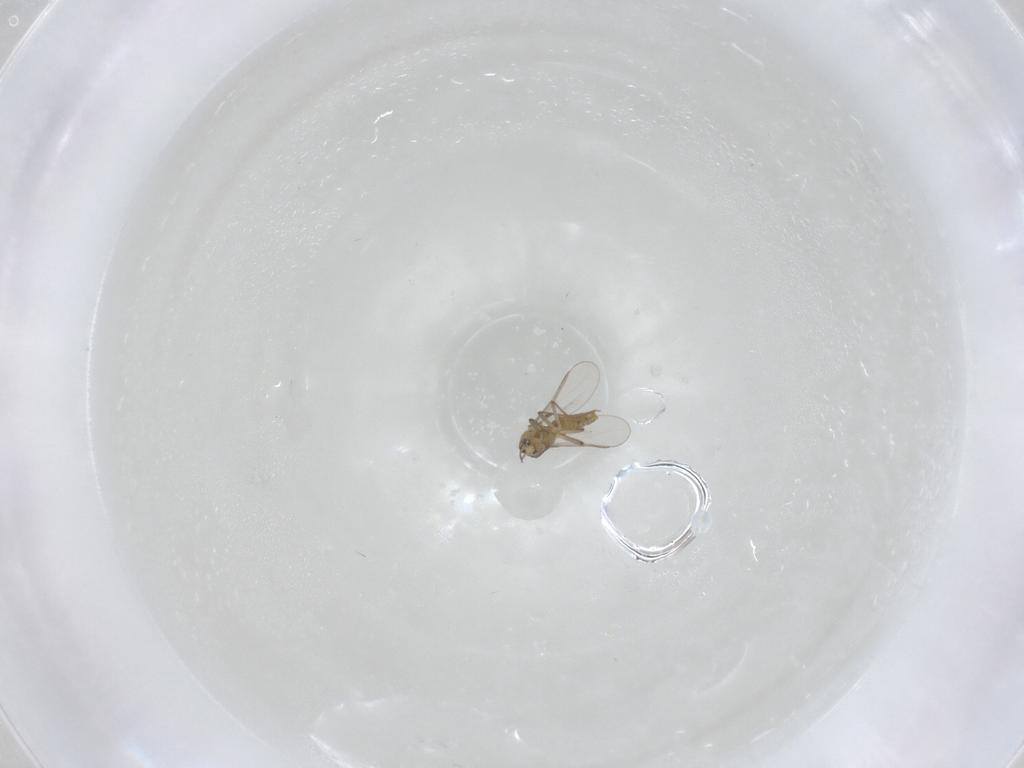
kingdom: Animalia
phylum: Arthropoda
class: Insecta
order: Diptera
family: Chironomidae
